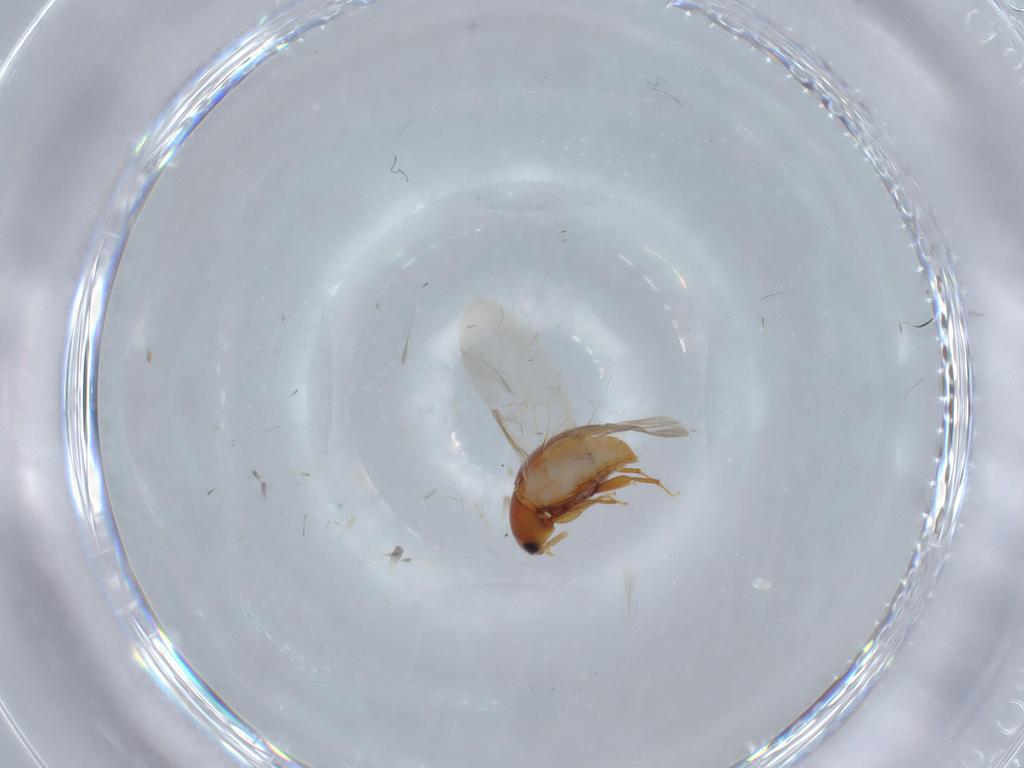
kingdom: Animalia
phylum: Arthropoda
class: Insecta
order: Coleoptera
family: Phalacridae
